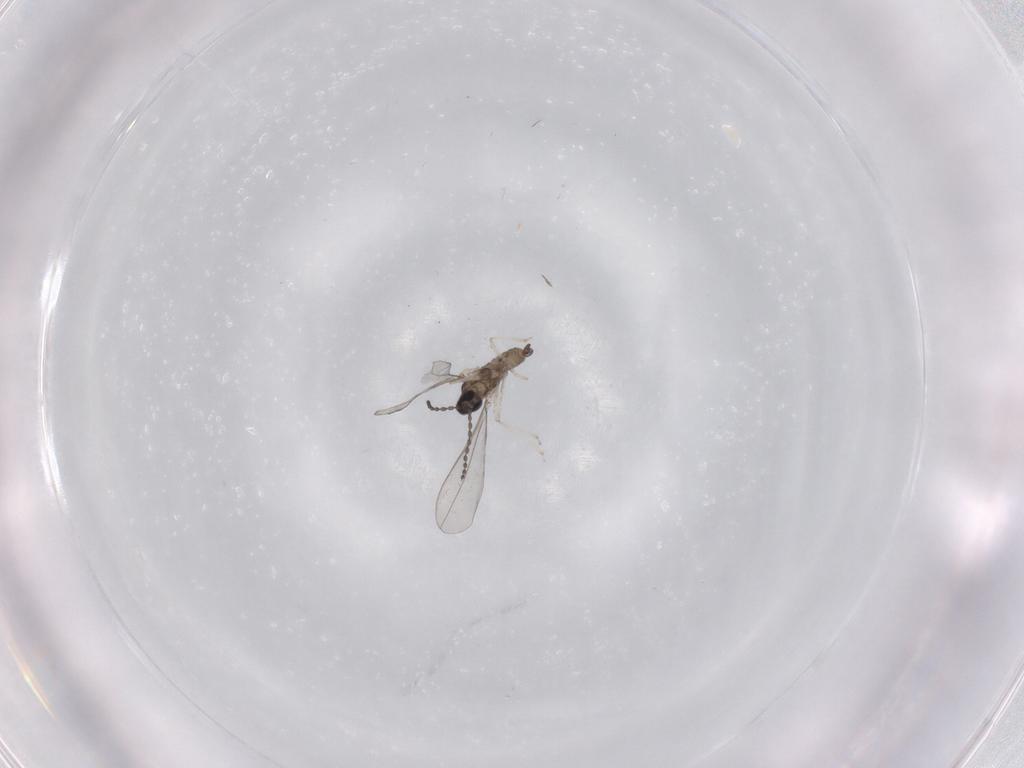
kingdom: Animalia
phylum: Arthropoda
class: Insecta
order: Diptera
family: Cecidomyiidae
